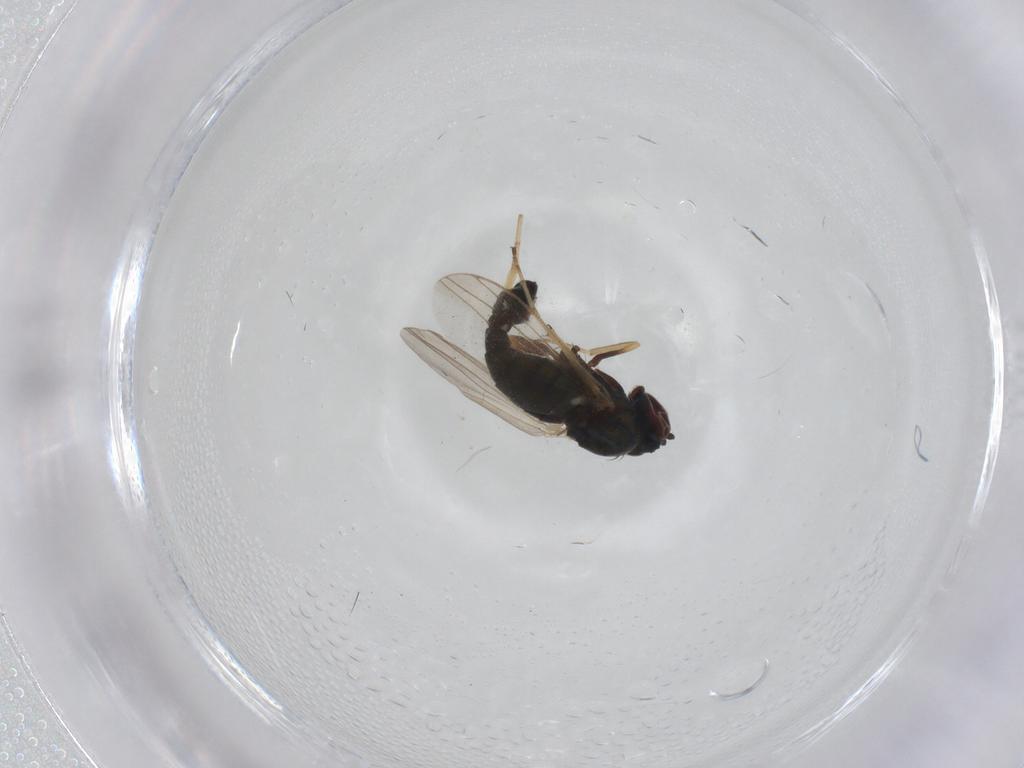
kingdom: Animalia
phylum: Arthropoda
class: Insecta
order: Diptera
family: Dolichopodidae
